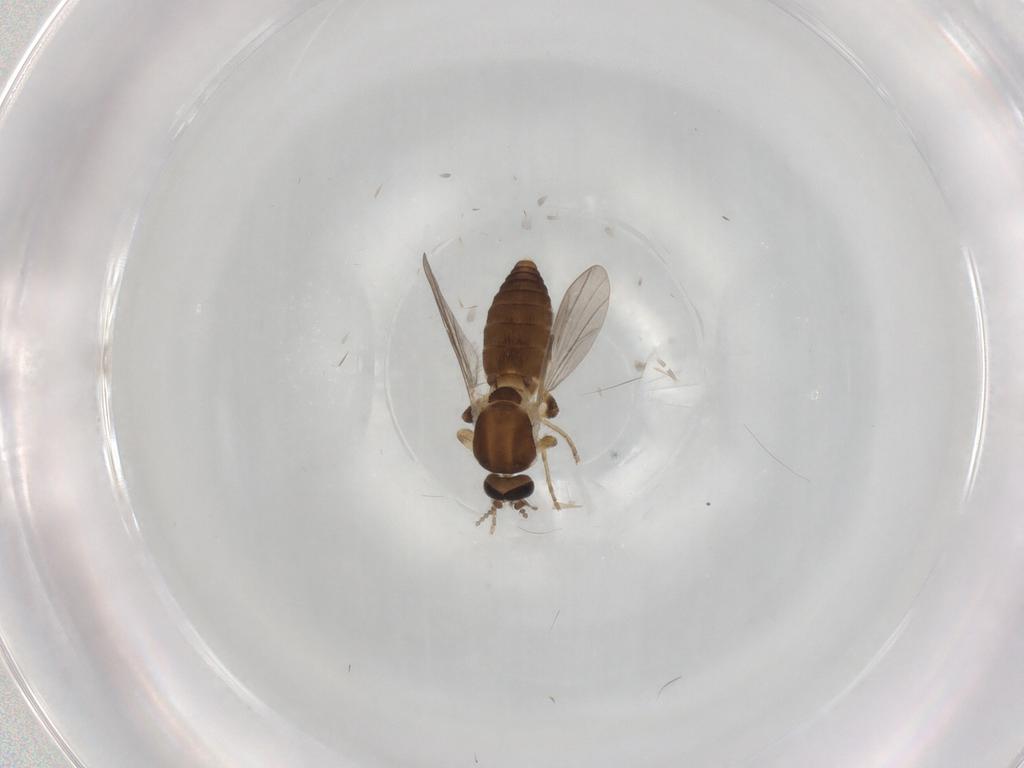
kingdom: Animalia
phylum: Arthropoda
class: Insecta
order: Diptera
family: Ceratopogonidae
